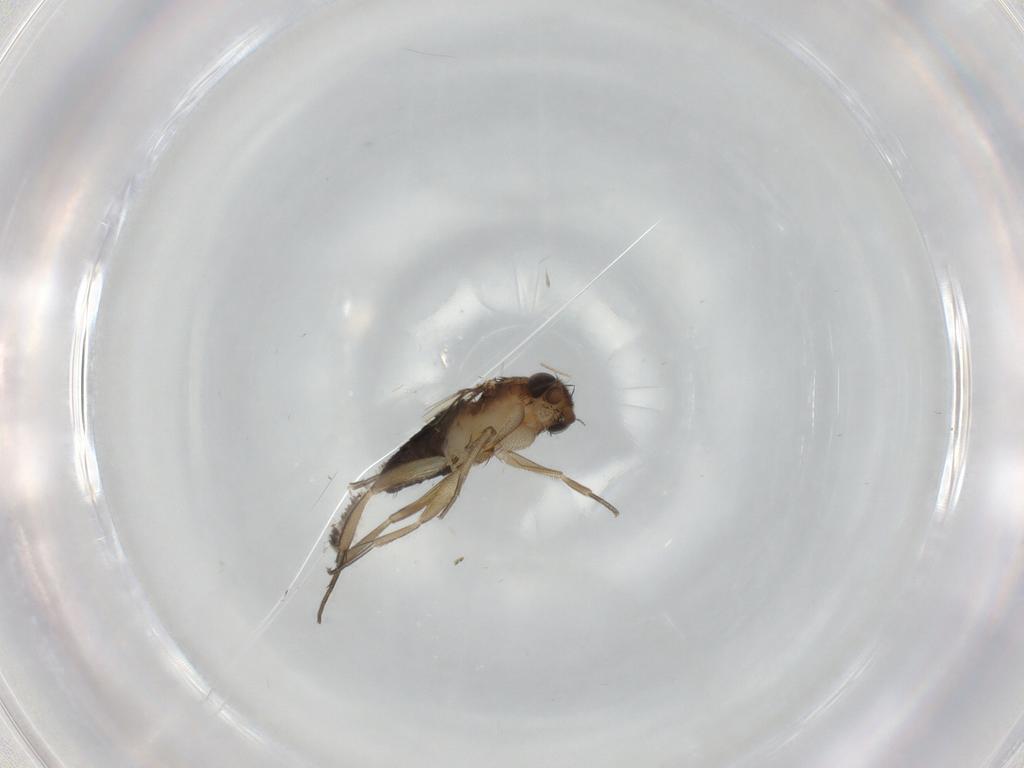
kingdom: Animalia
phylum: Arthropoda
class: Insecta
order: Diptera
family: Phoridae
